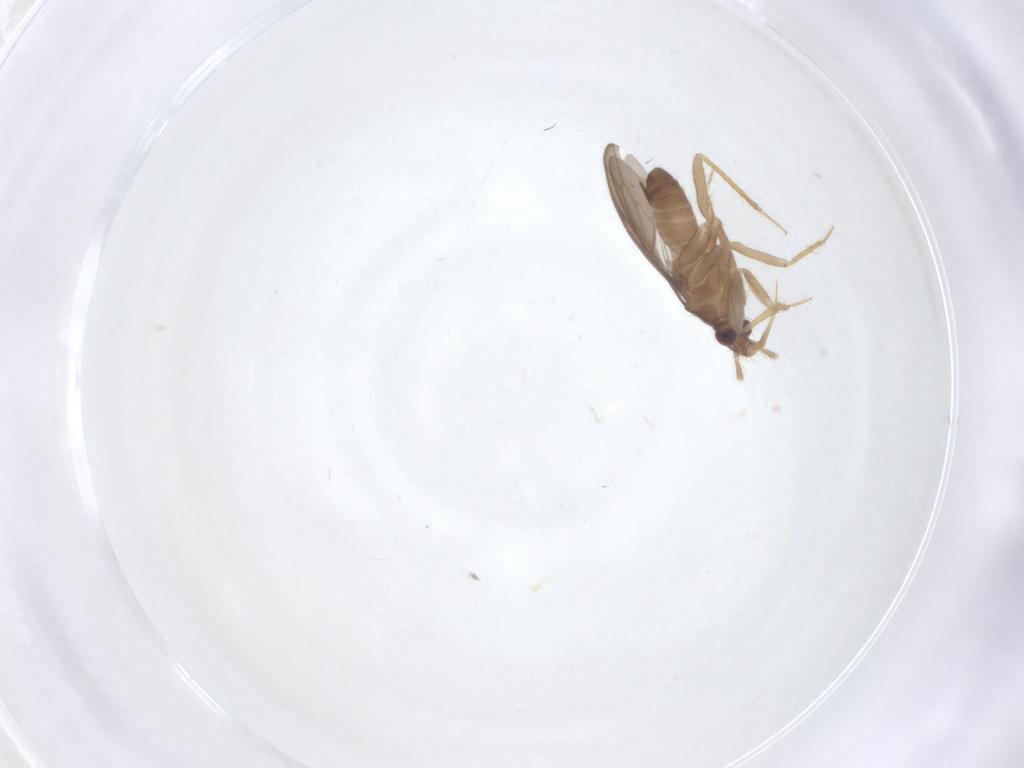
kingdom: Animalia
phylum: Arthropoda
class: Insecta
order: Hemiptera
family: Ceratocombidae
